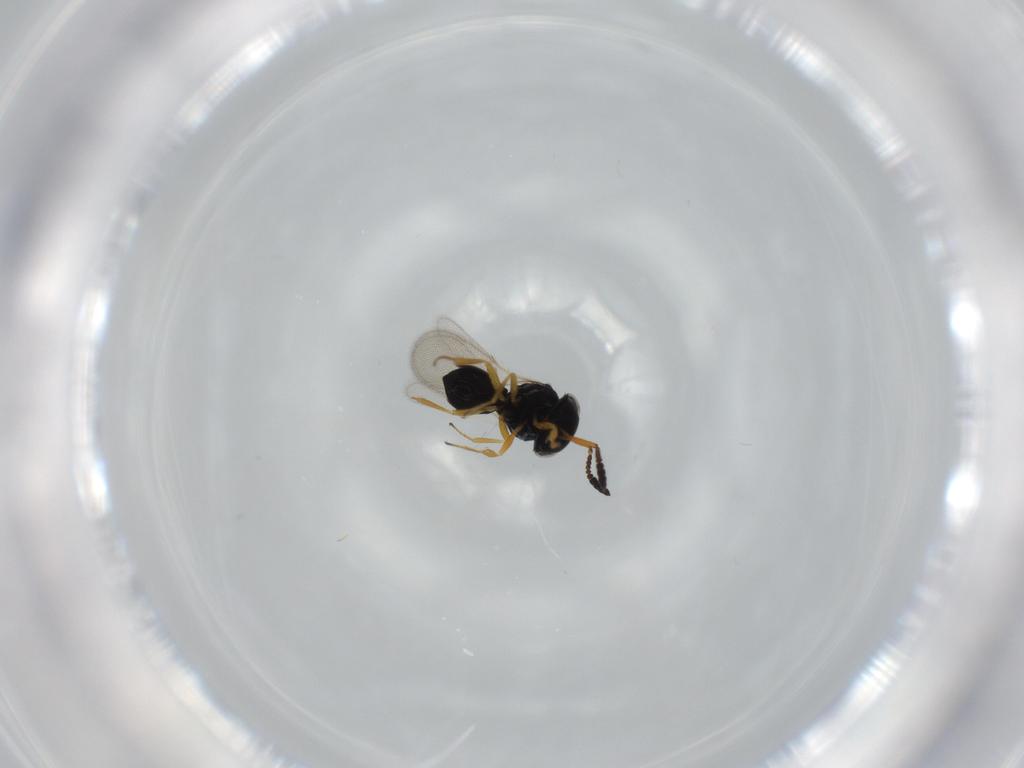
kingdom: Animalia
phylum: Arthropoda
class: Insecta
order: Hymenoptera
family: Scelionidae
